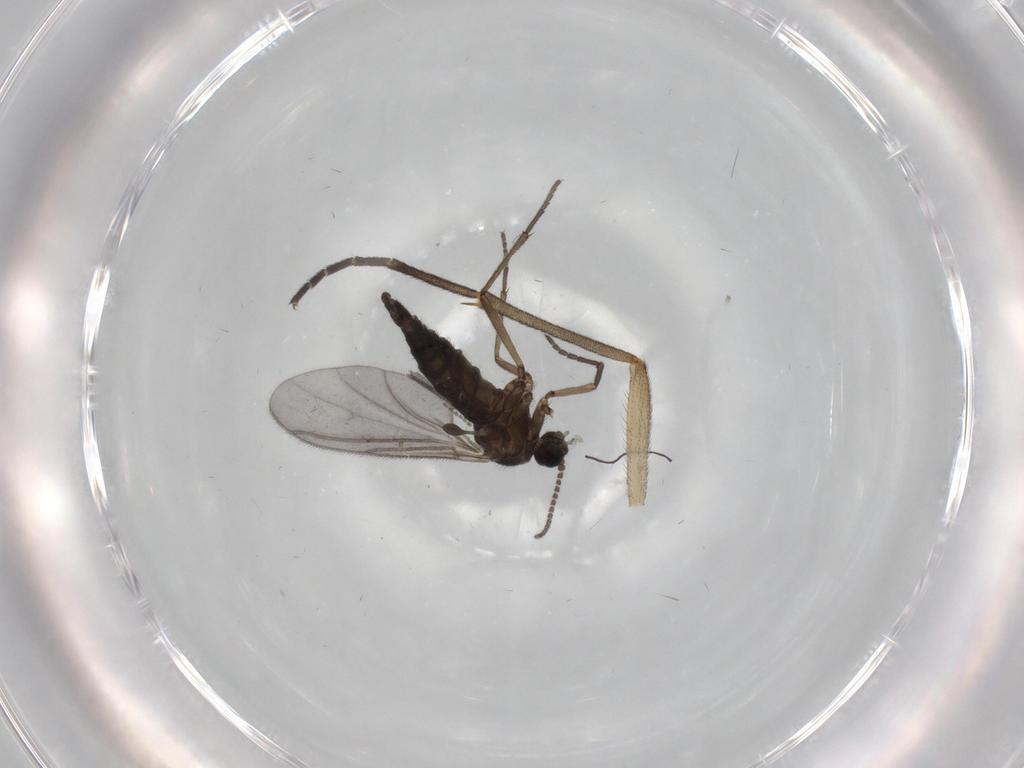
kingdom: Animalia
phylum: Arthropoda
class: Insecta
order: Diptera
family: Sciaridae
